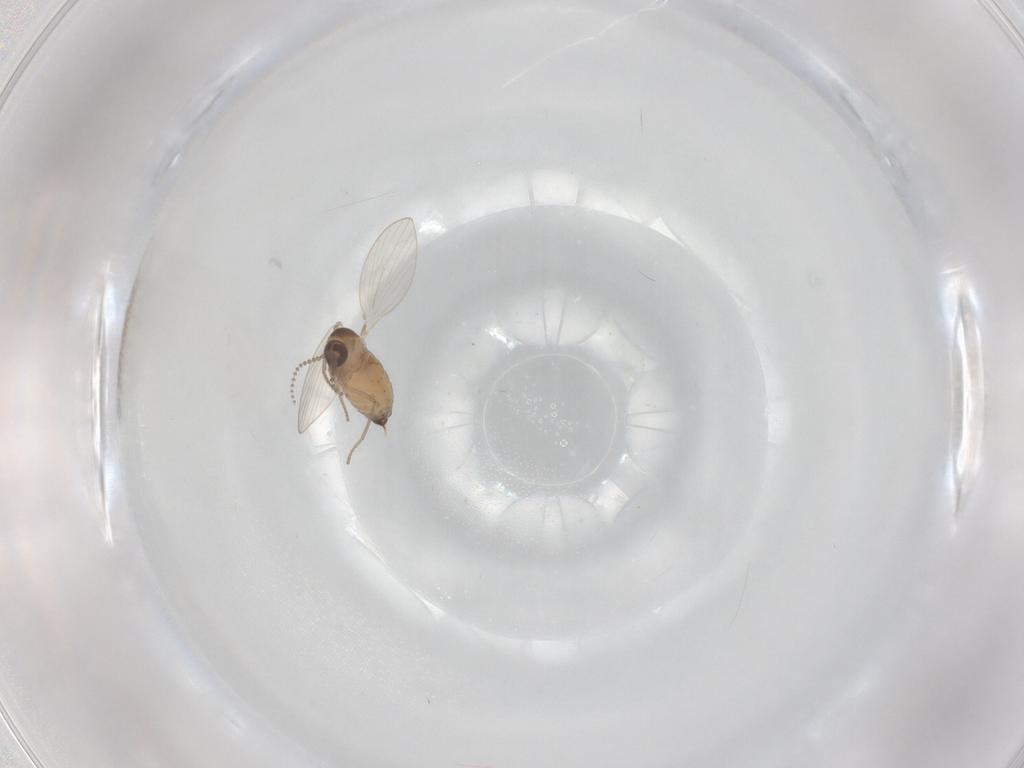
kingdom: Animalia
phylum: Arthropoda
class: Insecta
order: Diptera
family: Psychodidae
